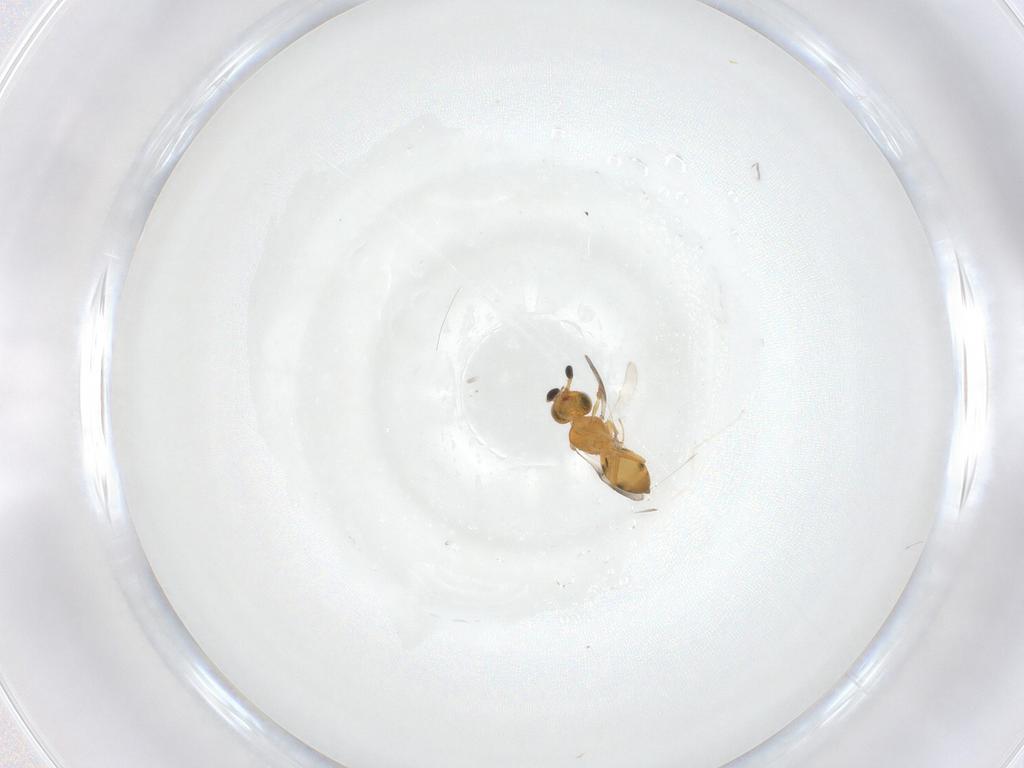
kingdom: Animalia
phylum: Arthropoda
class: Insecta
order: Hymenoptera
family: Scelionidae
